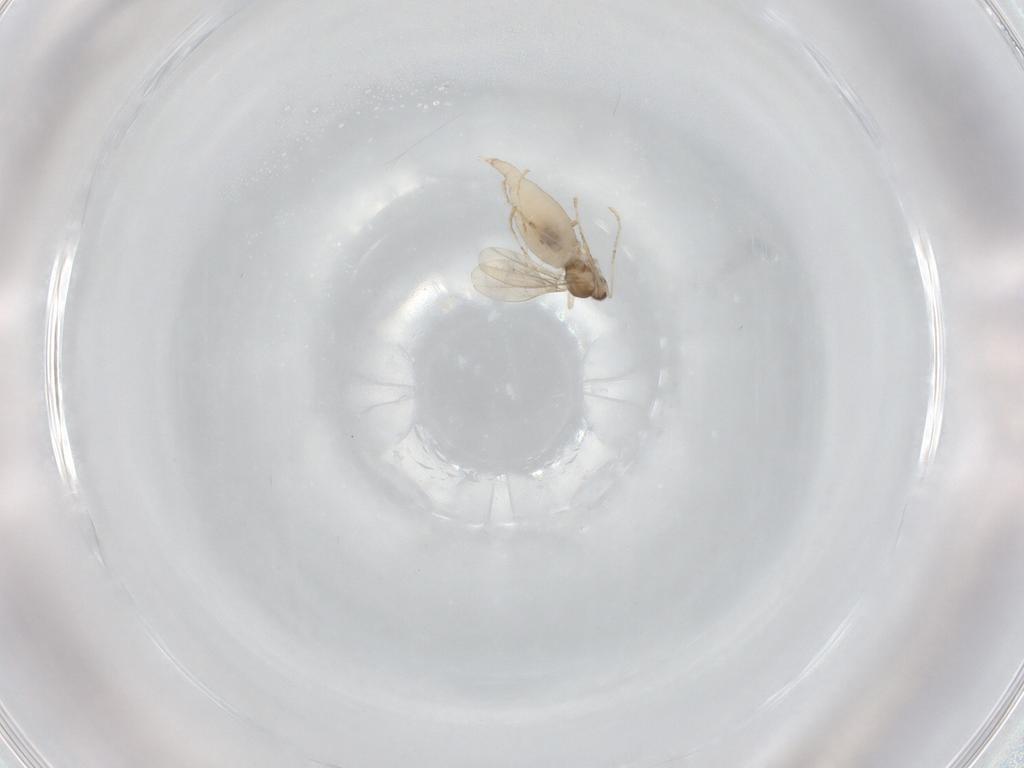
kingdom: Animalia
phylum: Arthropoda
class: Insecta
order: Diptera
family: Cecidomyiidae
